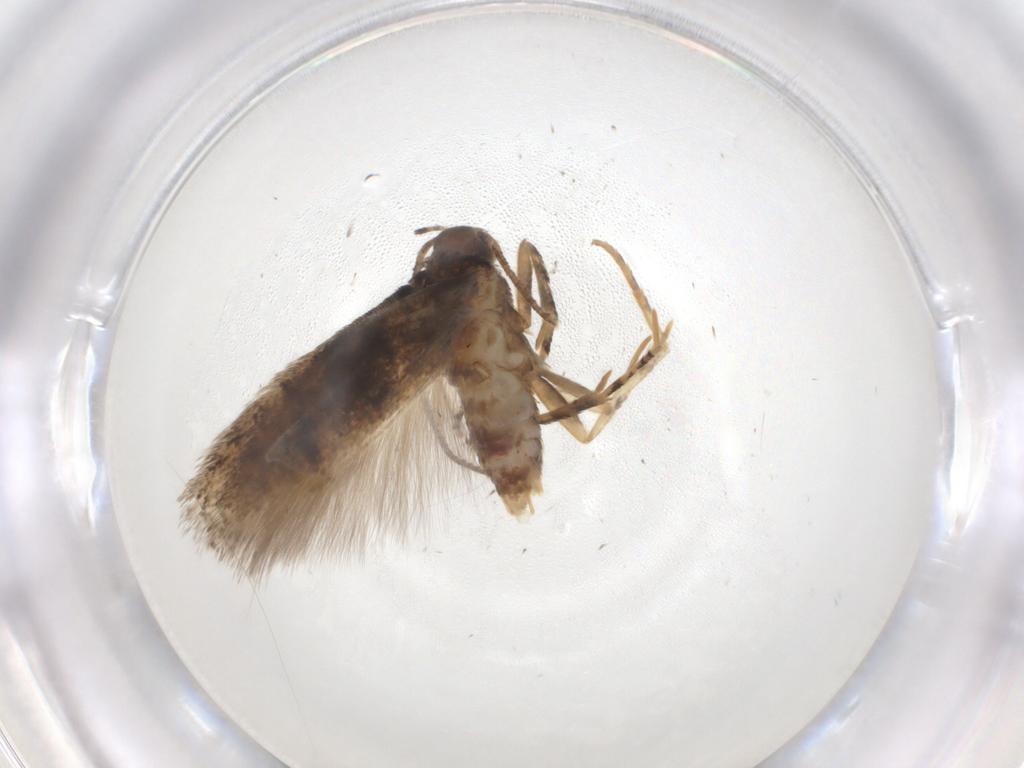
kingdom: Animalia
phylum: Arthropoda
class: Insecta
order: Lepidoptera
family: Gelechiidae
